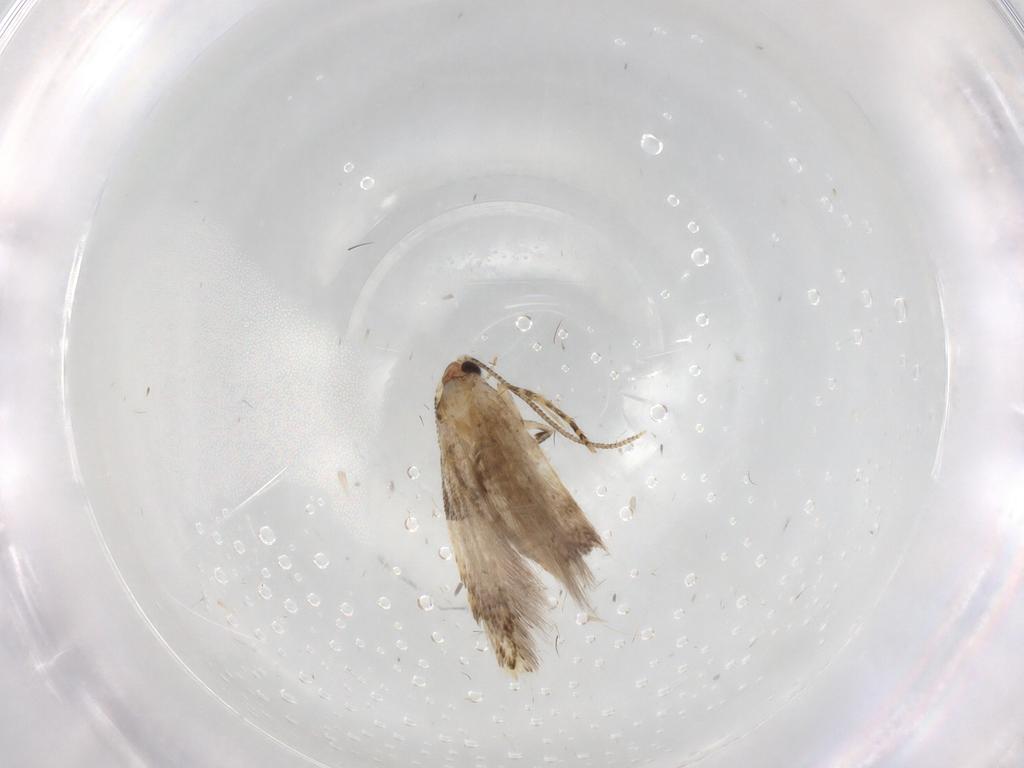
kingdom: Animalia
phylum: Arthropoda
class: Insecta
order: Lepidoptera
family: Tineidae
